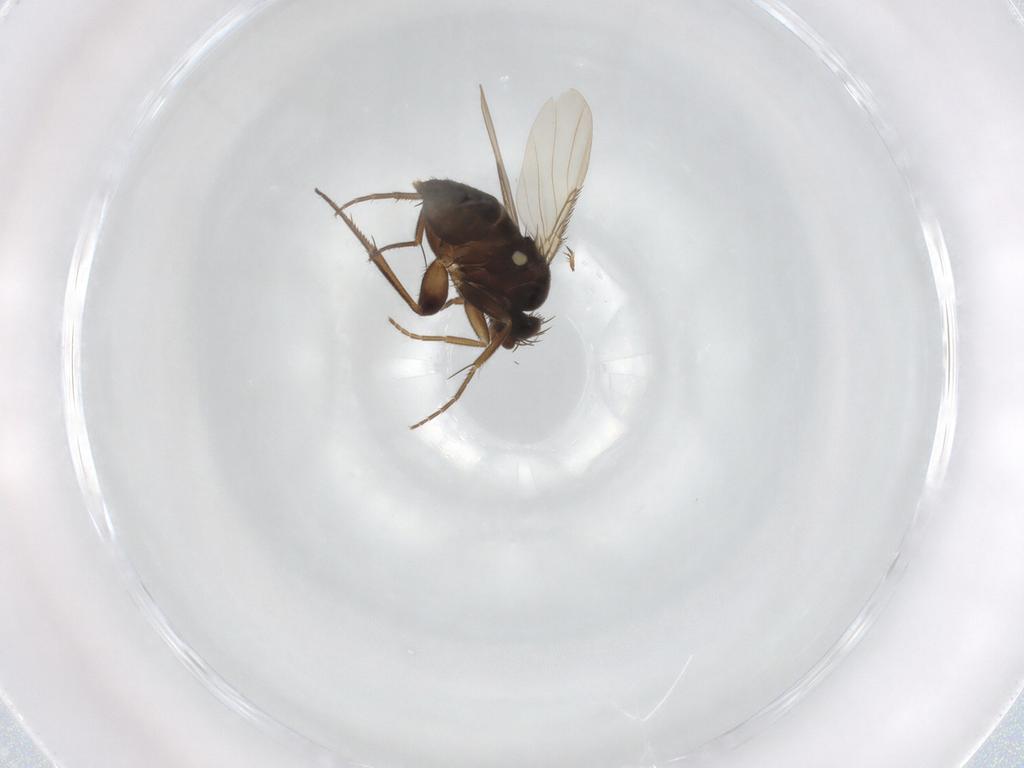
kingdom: Animalia
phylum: Arthropoda
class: Insecta
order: Diptera
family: Phoridae
